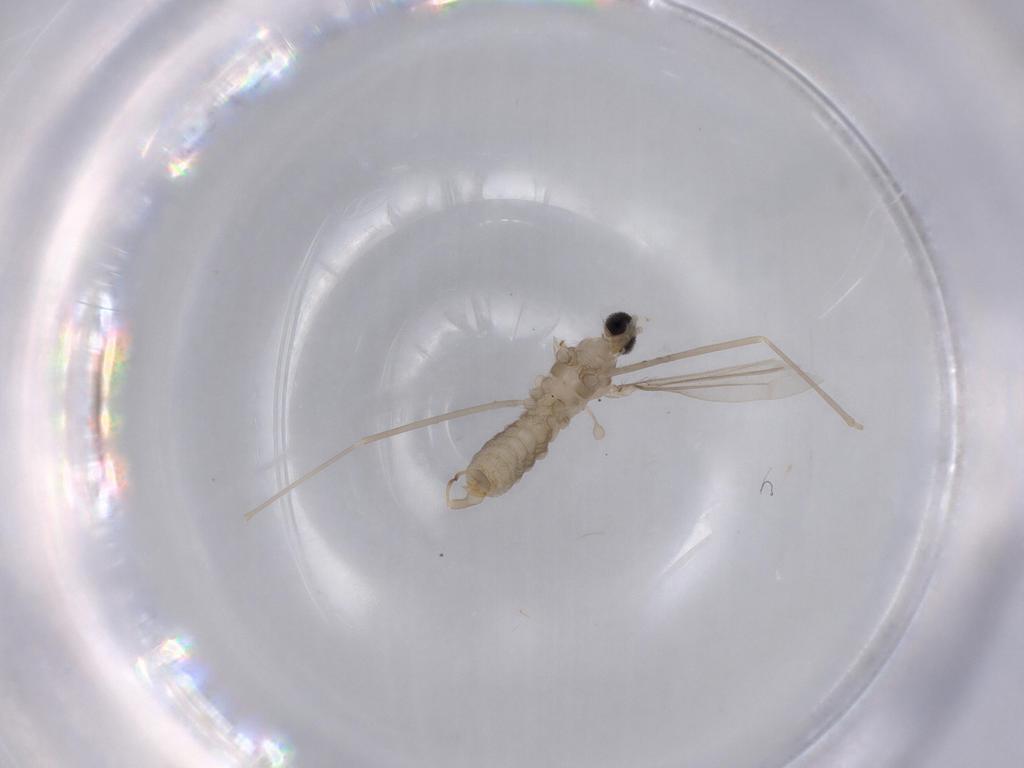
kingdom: Animalia
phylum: Arthropoda
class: Insecta
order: Diptera
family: Cecidomyiidae
